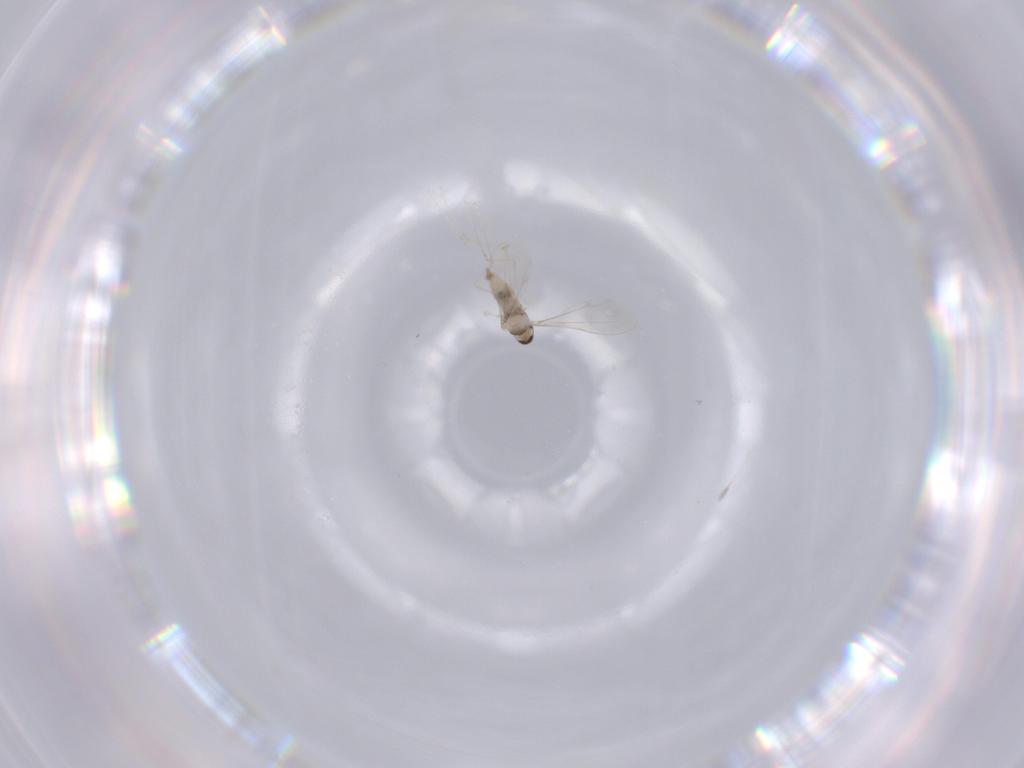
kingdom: Animalia
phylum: Arthropoda
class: Insecta
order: Diptera
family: Cecidomyiidae
